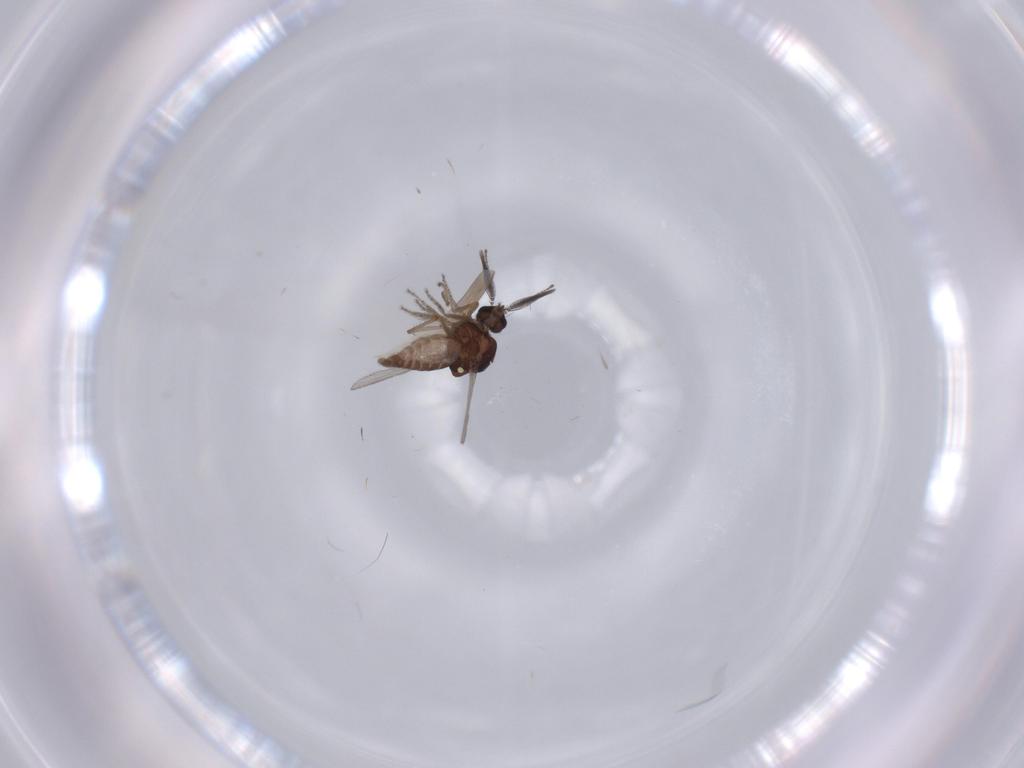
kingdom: Animalia
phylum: Arthropoda
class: Insecta
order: Diptera
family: Ceratopogonidae
